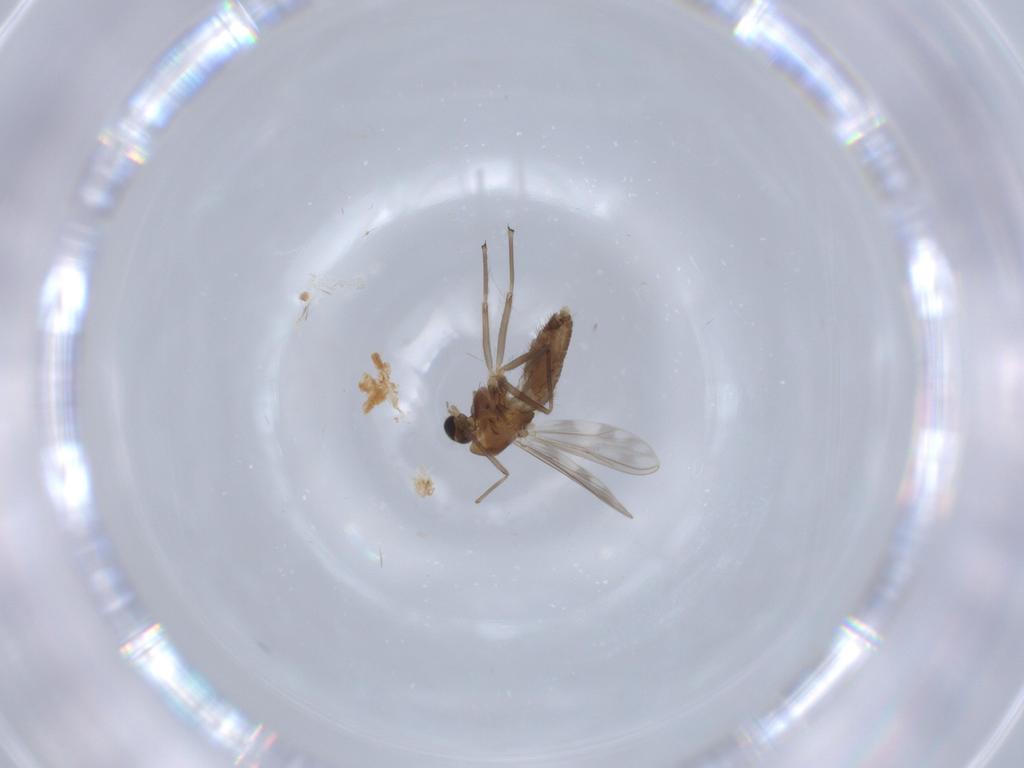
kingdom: Animalia
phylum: Arthropoda
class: Insecta
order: Diptera
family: Chironomidae
